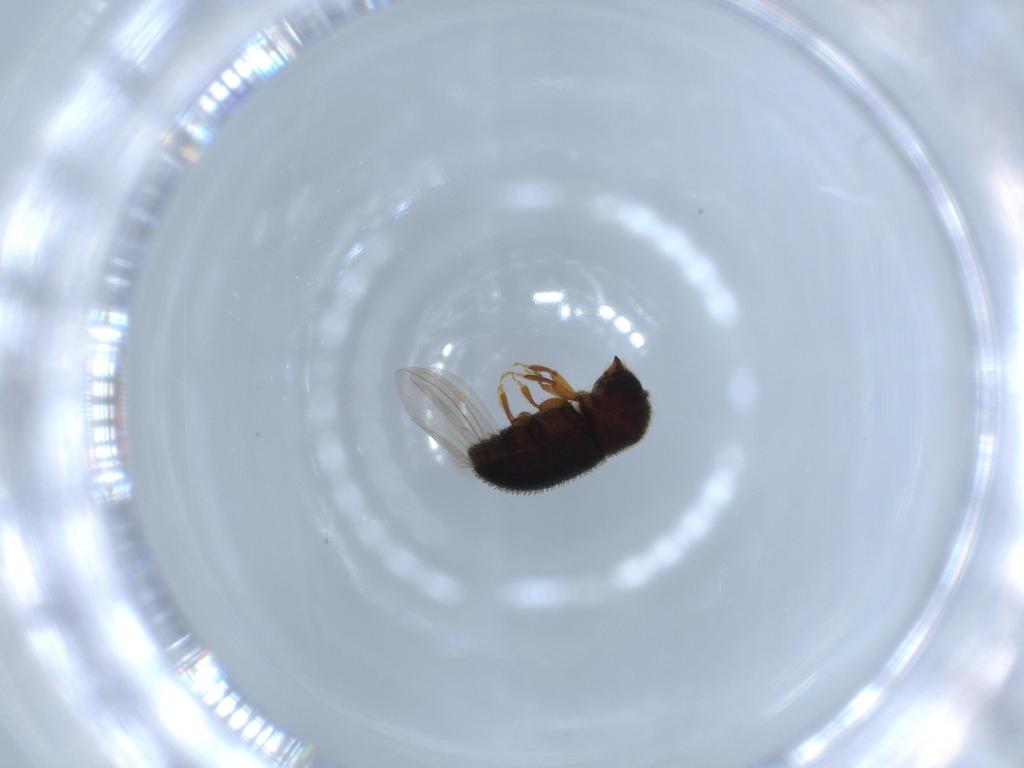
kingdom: Animalia
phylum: Arthropoda
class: Insecta
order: Coleoptera
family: Curculionidae
